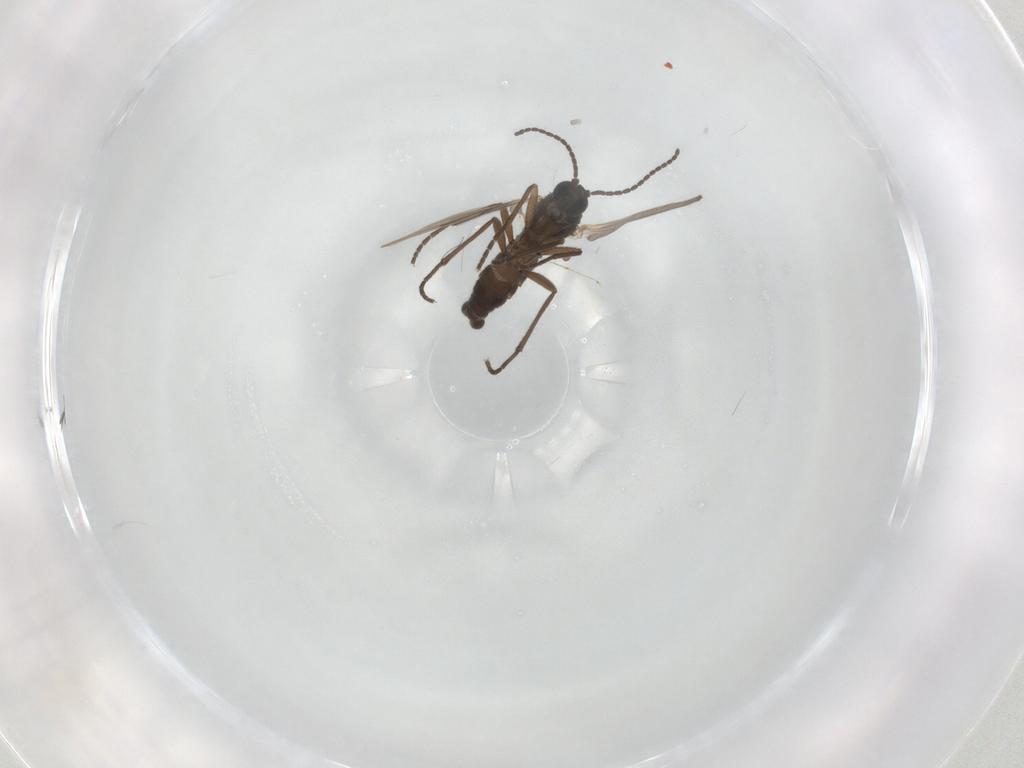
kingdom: Animalia
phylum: Arthropoda
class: Insecta
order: Diptera
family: Chironomidae
